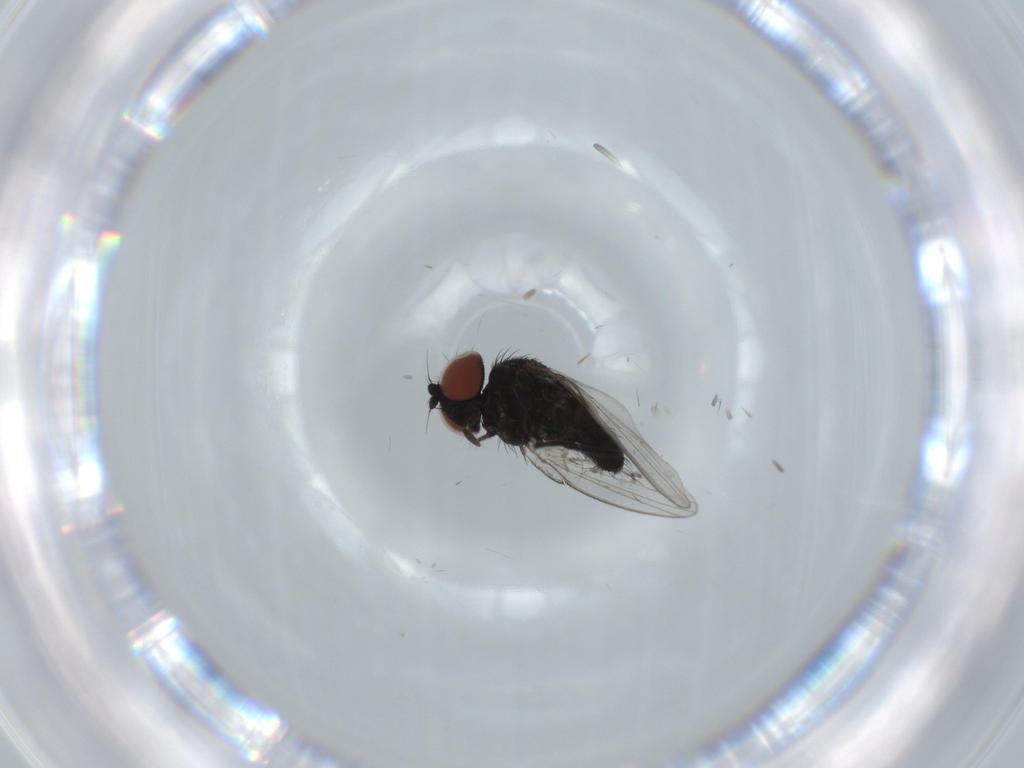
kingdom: Animalia
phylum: Arthropoda
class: Insecta
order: Diptera
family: Milichiidae
